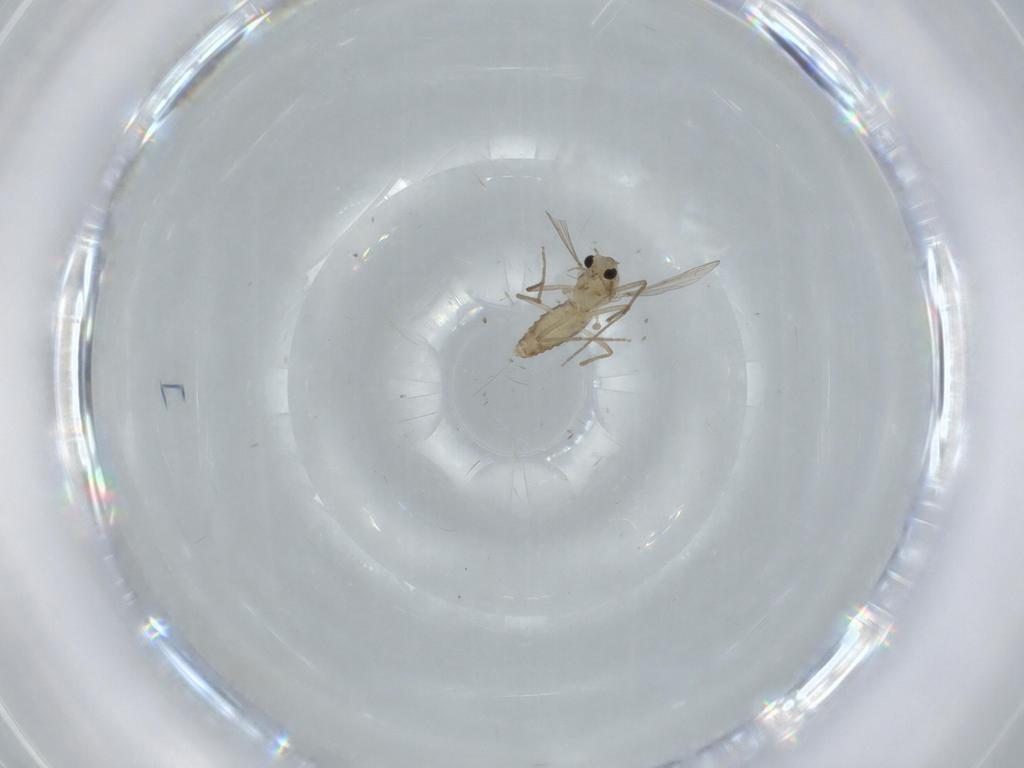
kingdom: Animalia
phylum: Arthropoda
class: Insecta
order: Diptera
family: Chironomidae
